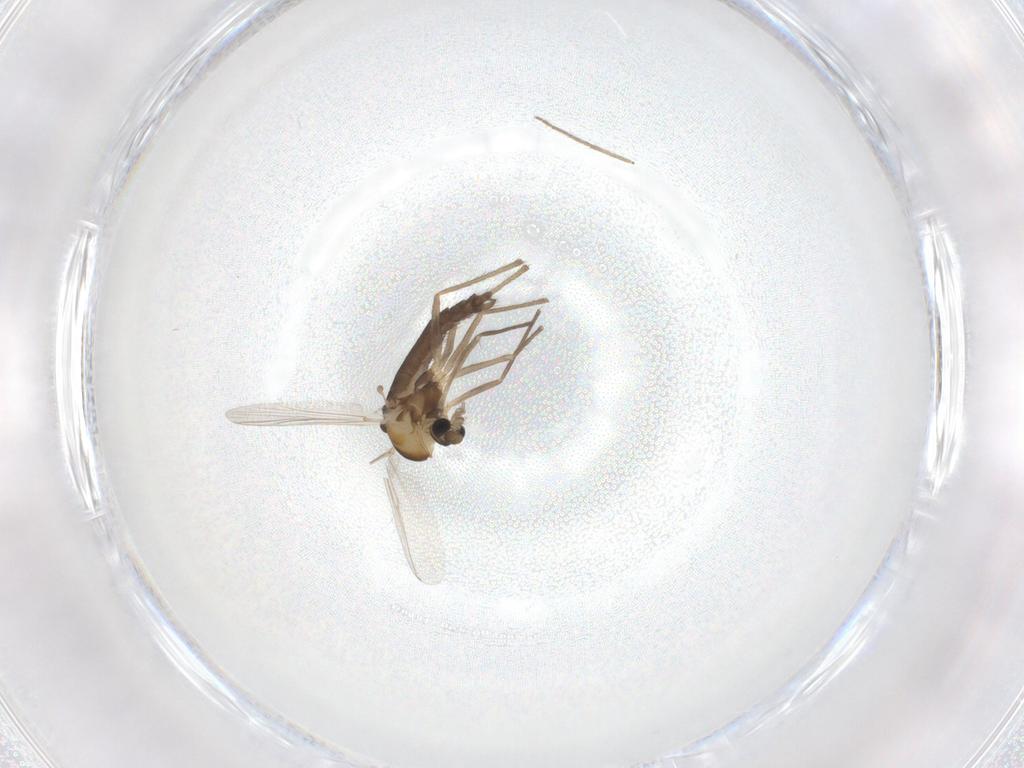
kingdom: Animalia
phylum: Arthropoda
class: Insecta
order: Diptera
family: Chironomidae
